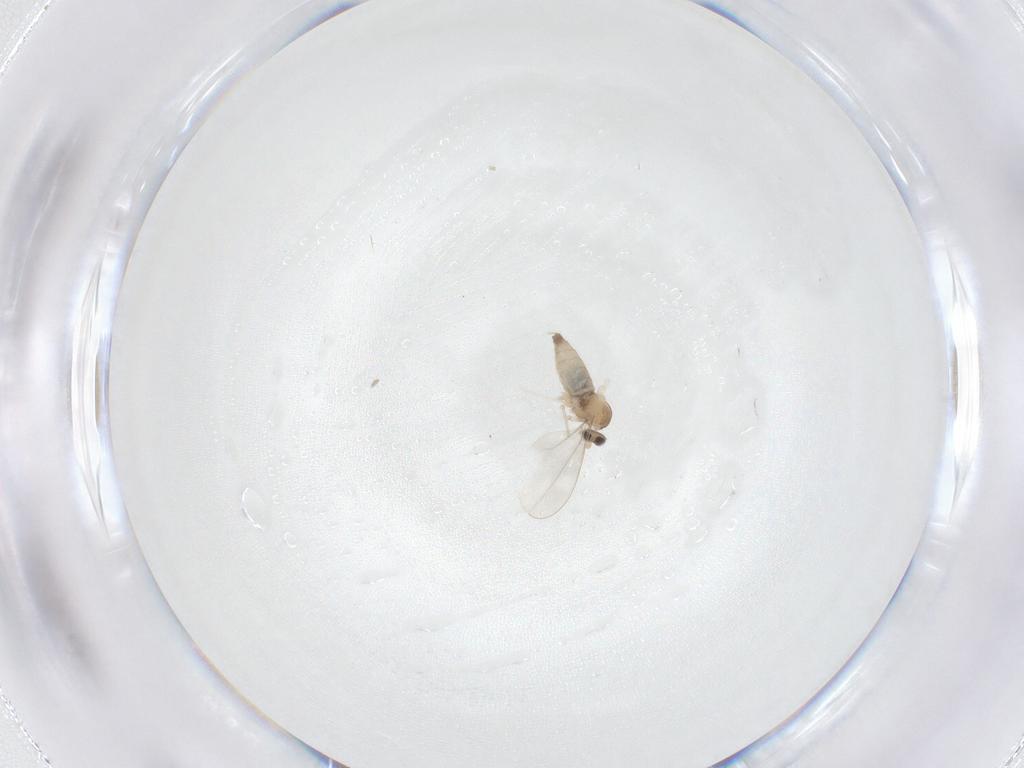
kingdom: Animalia
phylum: Arthropoda
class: Insecta
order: Diptera
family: Cecidomyiidae
